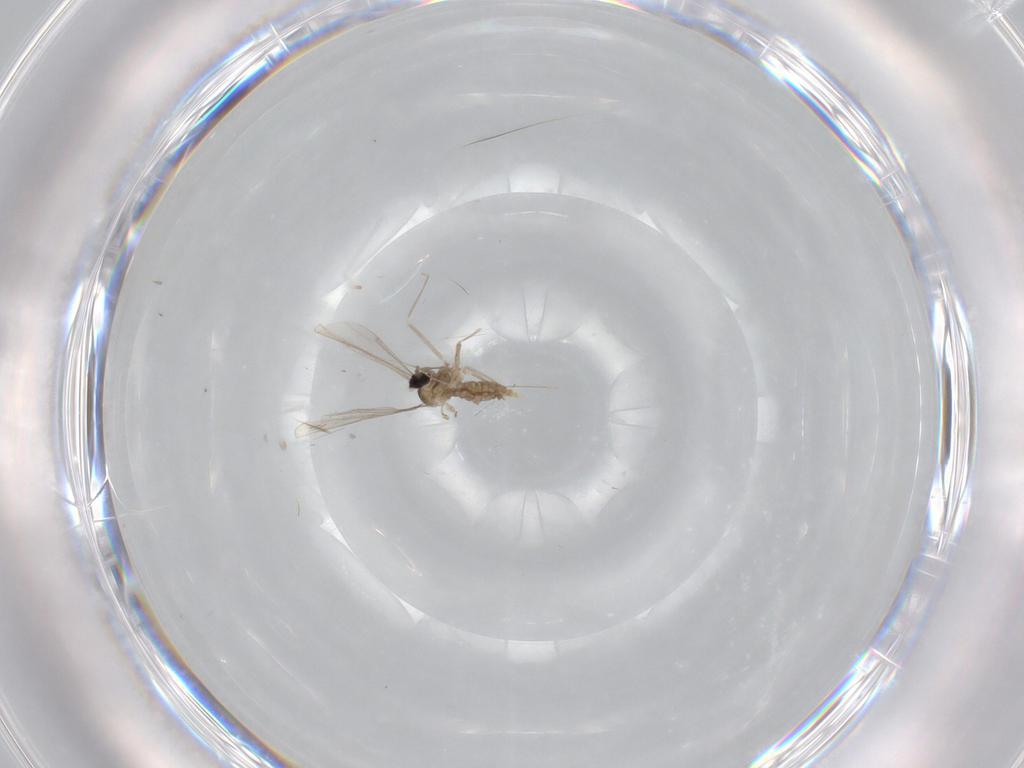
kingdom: Animalia
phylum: Arthropoda
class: Insecta
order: Diptera
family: Cecidomyiidae
